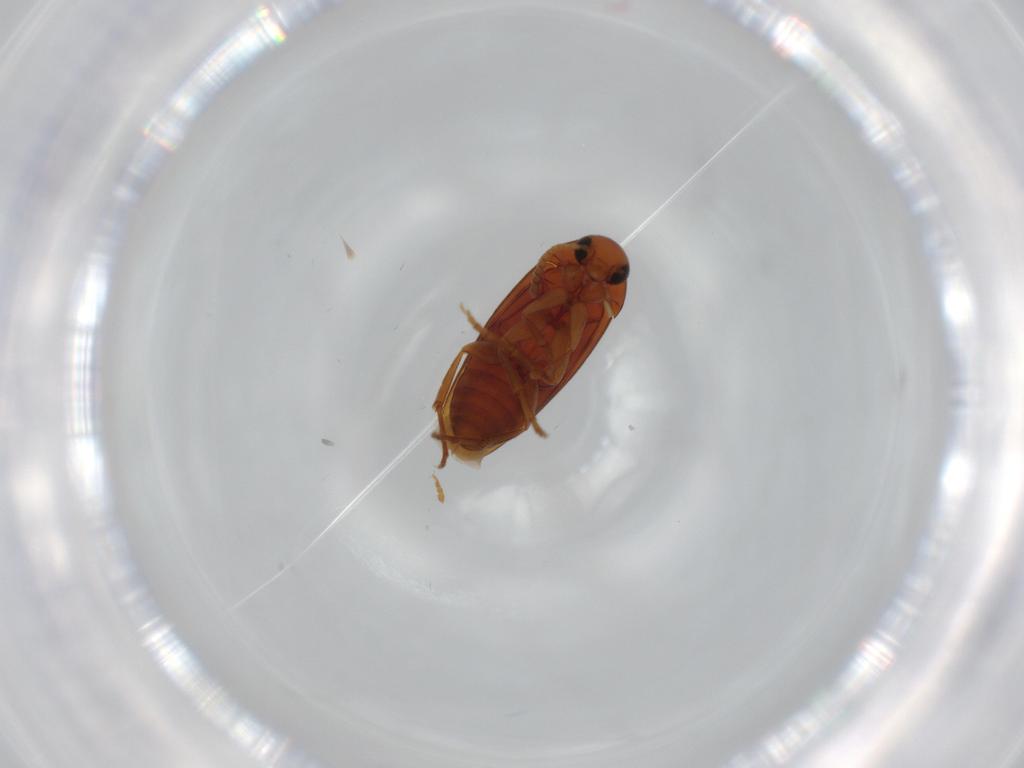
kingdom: Animalia
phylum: Arthropoda
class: Insecta
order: Coleoptera
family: Scraptiidae
